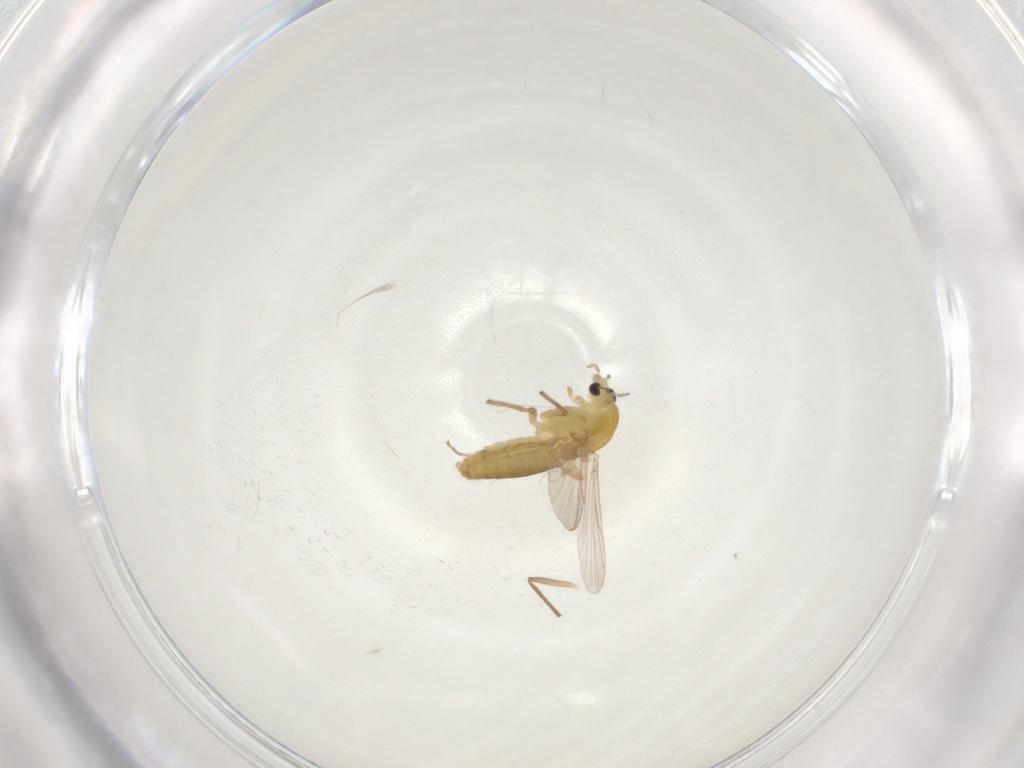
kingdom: Animalia
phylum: Arthropoda
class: Insecta
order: Diptera
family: Chironomidae
